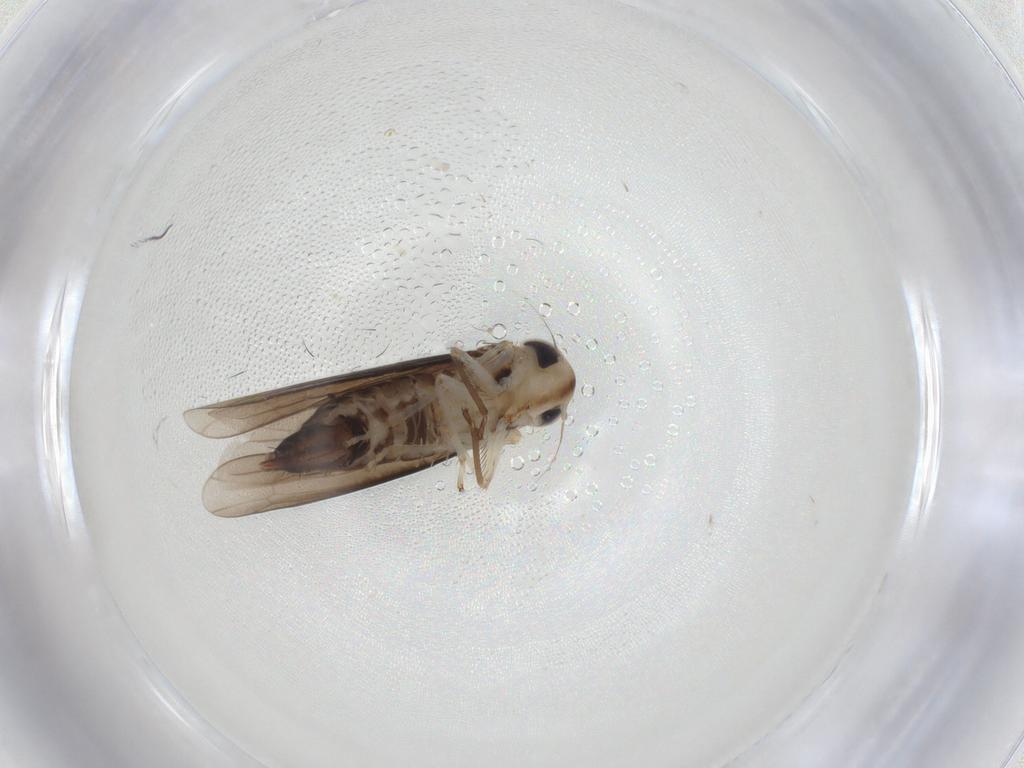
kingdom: Animalia
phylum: Arthropoda
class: Insecta
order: Hemiptera
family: Cicadellidae
